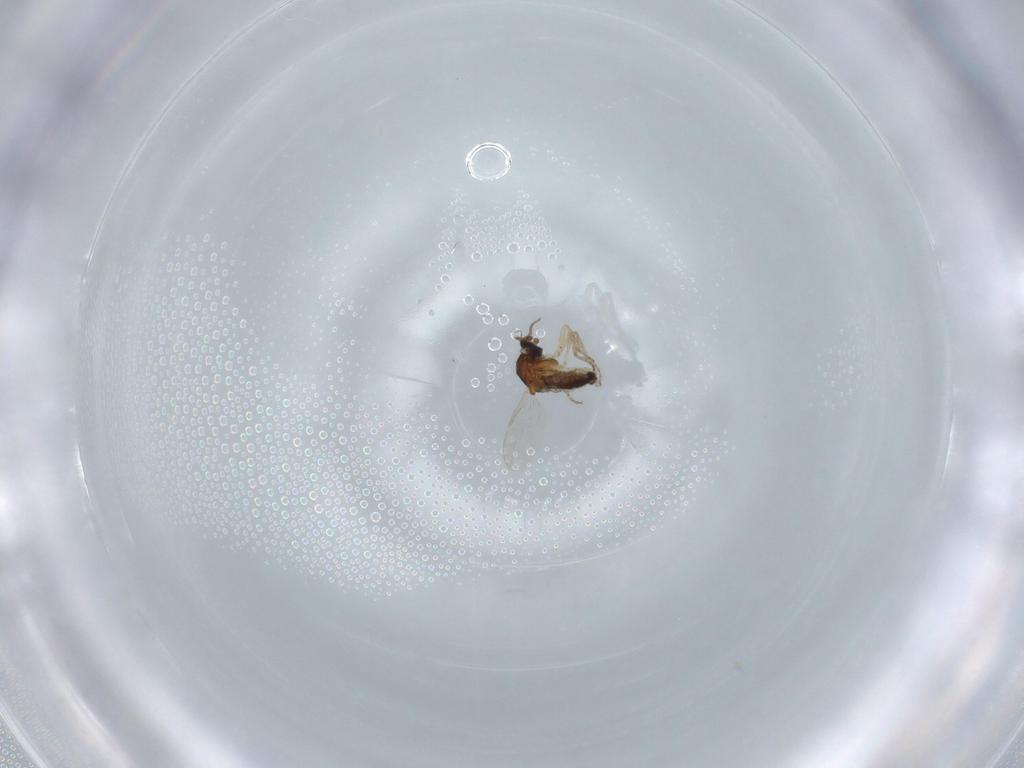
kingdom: Animalia
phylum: Arthropoda
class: Insecta
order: Diptera
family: Ceratopogonidae
